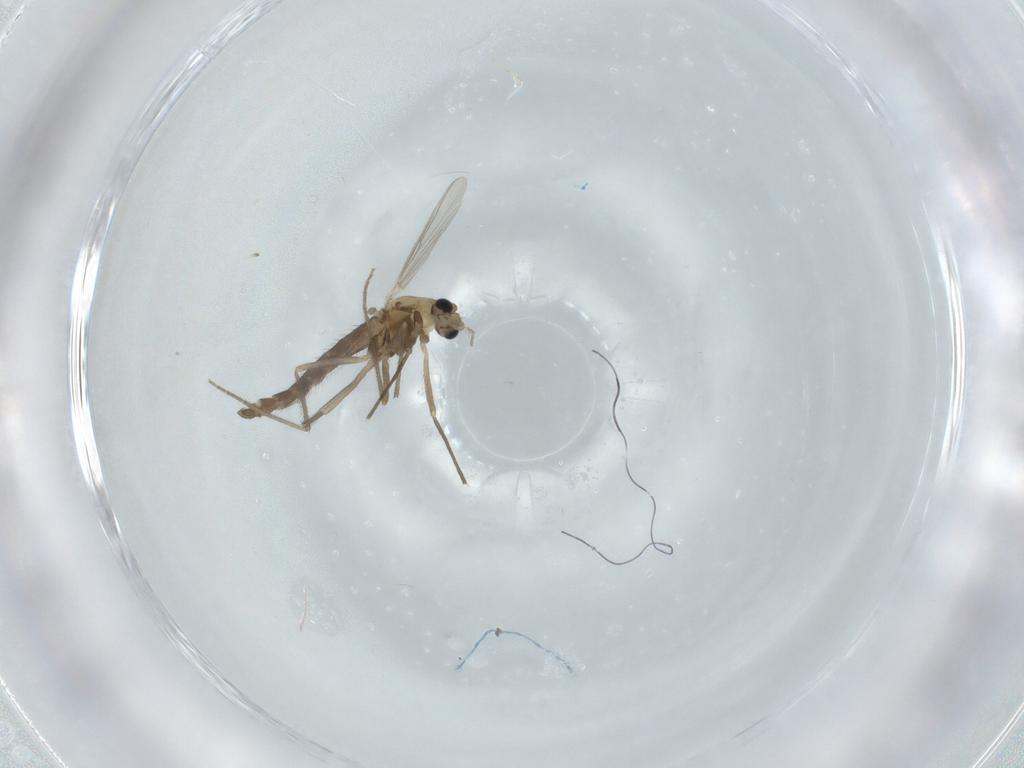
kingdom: Animalia
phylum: Arthropoda
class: Insecta
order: Diptera
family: Chironomidae
